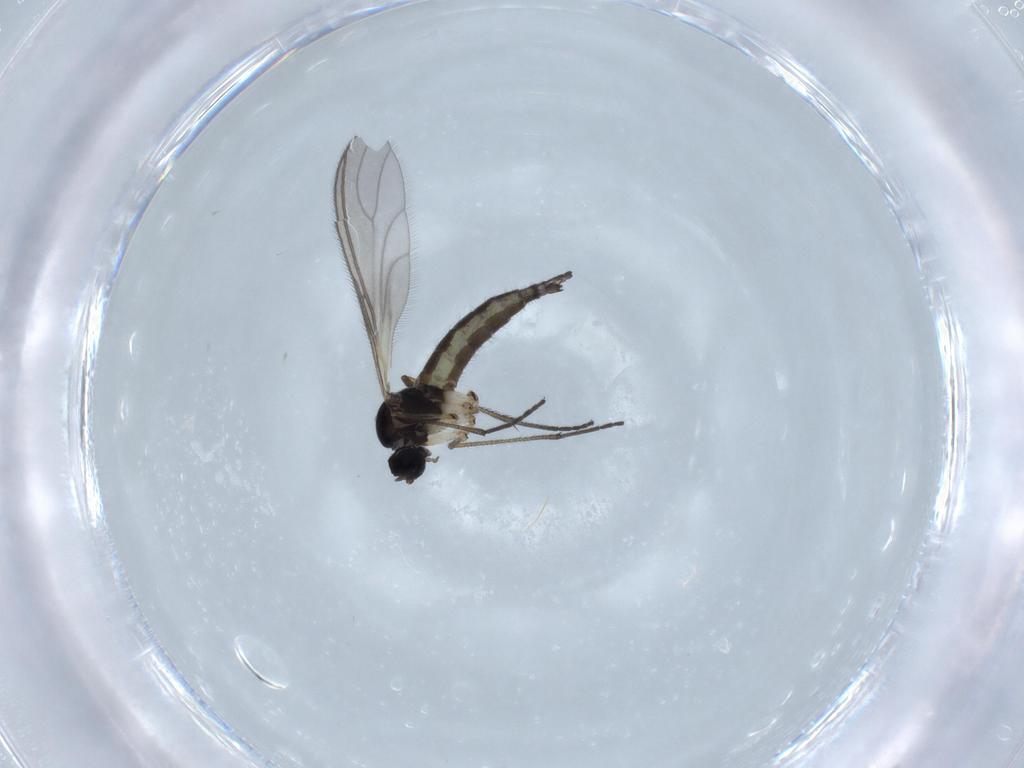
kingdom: Animalia
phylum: Arthropoda
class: Insecta
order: Diptera
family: Sciaridae
